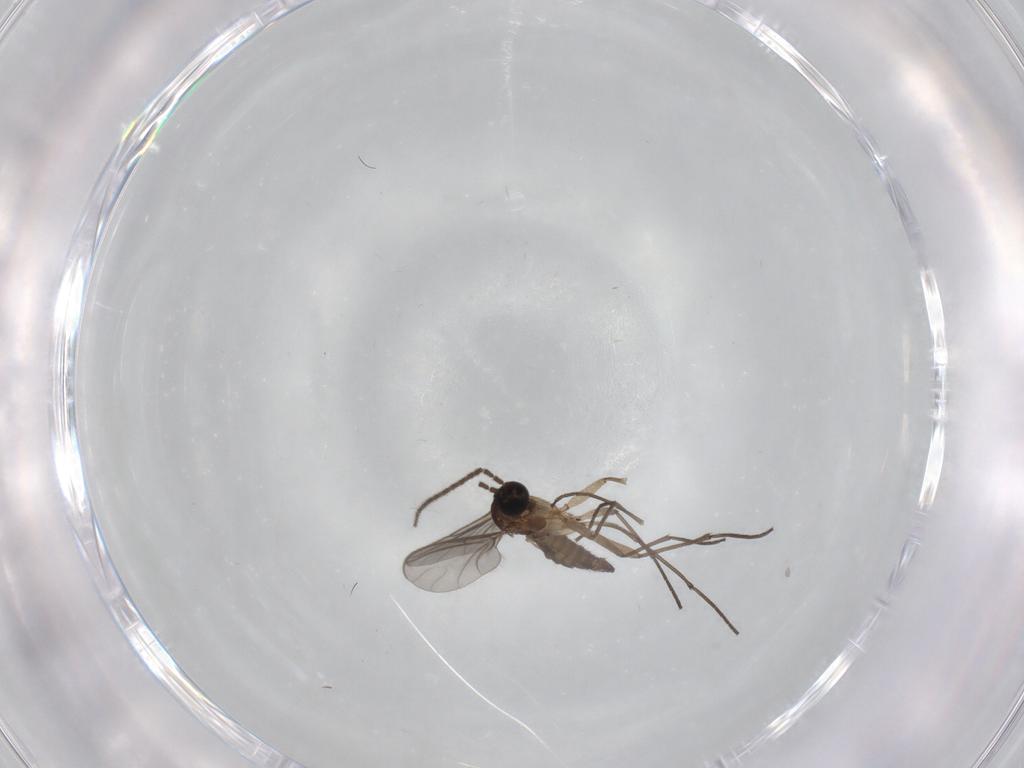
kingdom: Animalia
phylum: Arthropoda
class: Insecta
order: Diptera
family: Sciaridae
